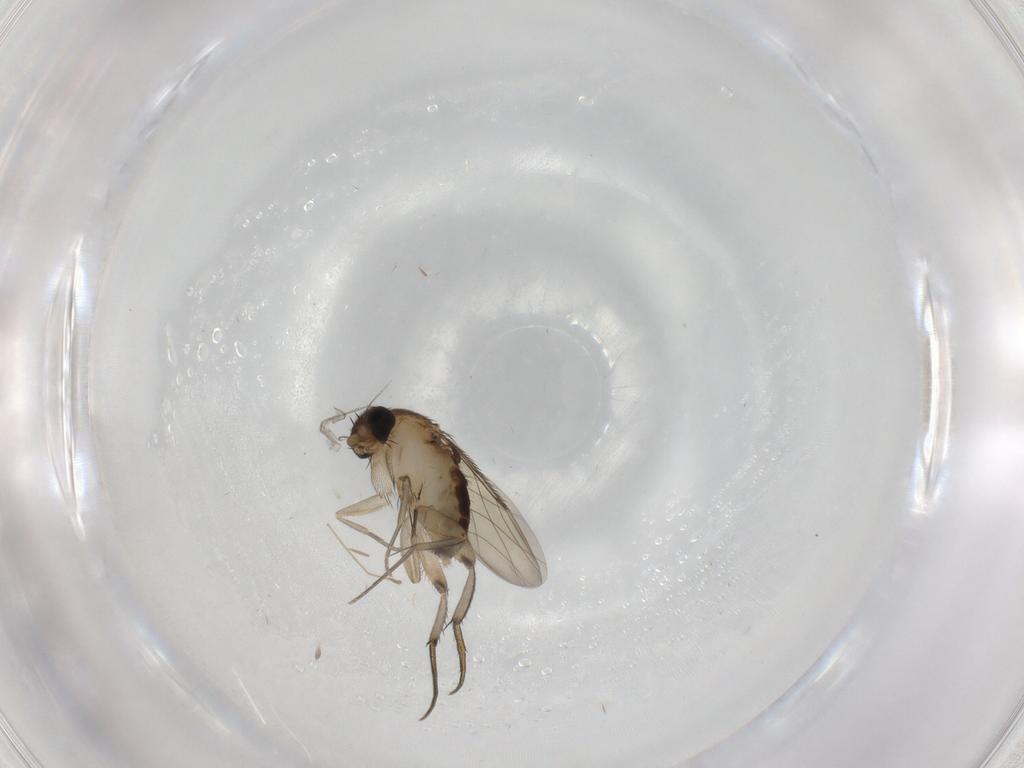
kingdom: Animalia
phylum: Arthropoda
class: Insecta
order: Diptera
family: Phoridae
